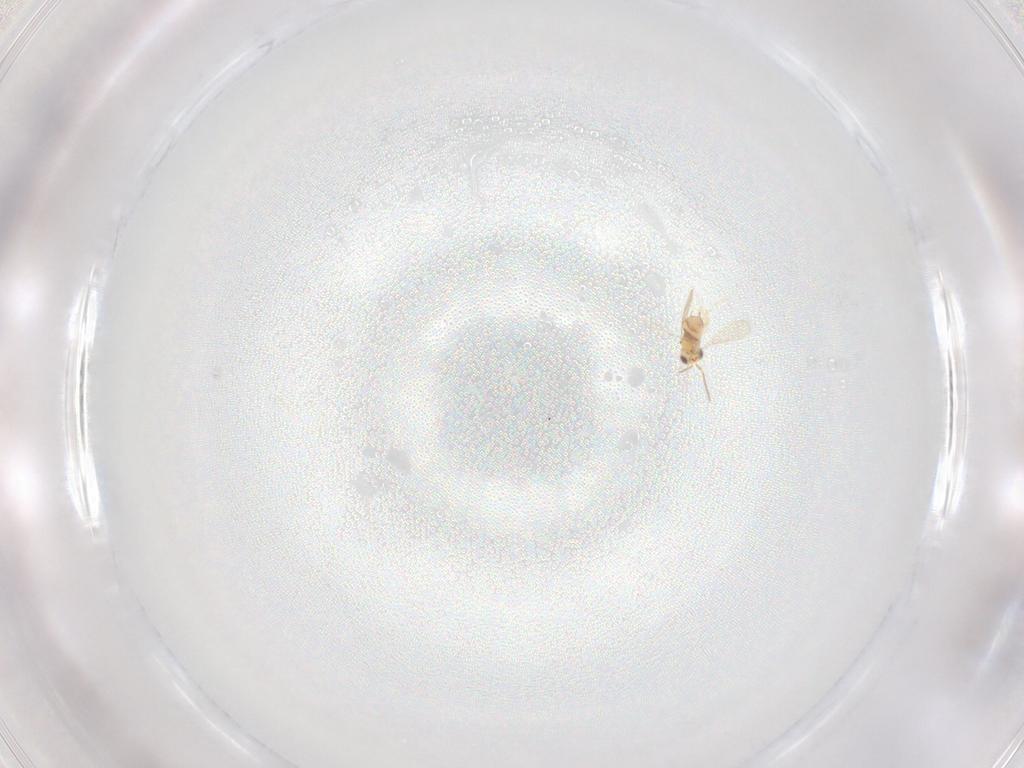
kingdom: Animalia
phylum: Arthropoda
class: Insecta
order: Hymenoptera
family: Aphelinidae
